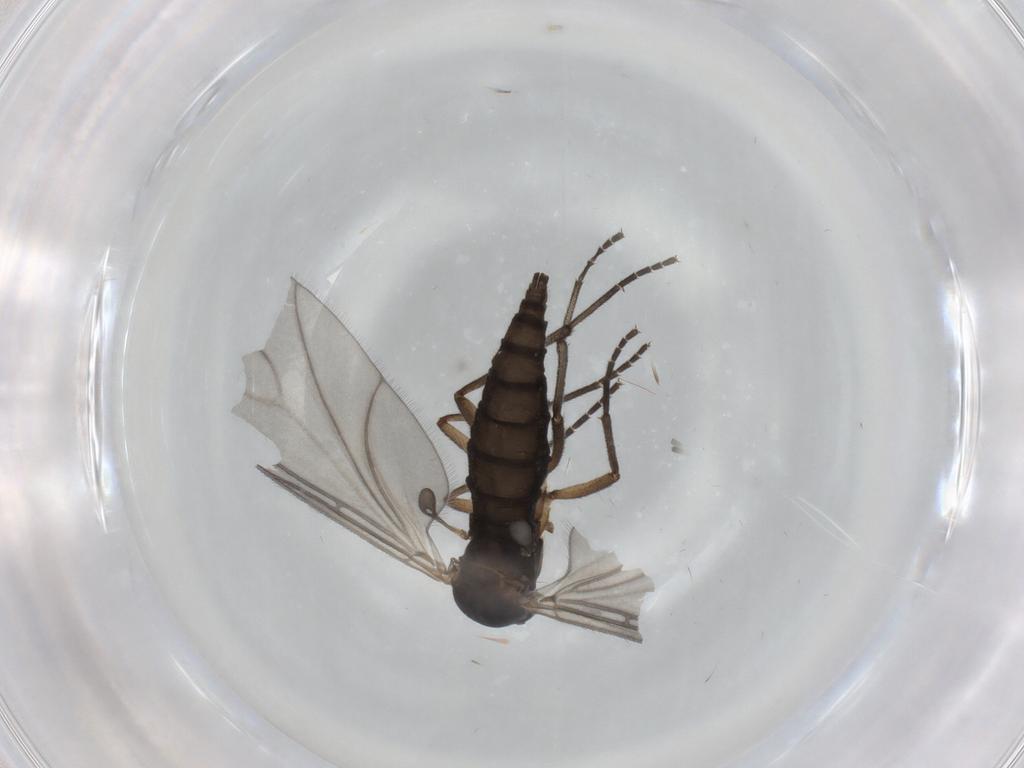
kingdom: Animalia
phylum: Arthropoda
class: Insecta
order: Diptera
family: Sciaridae
